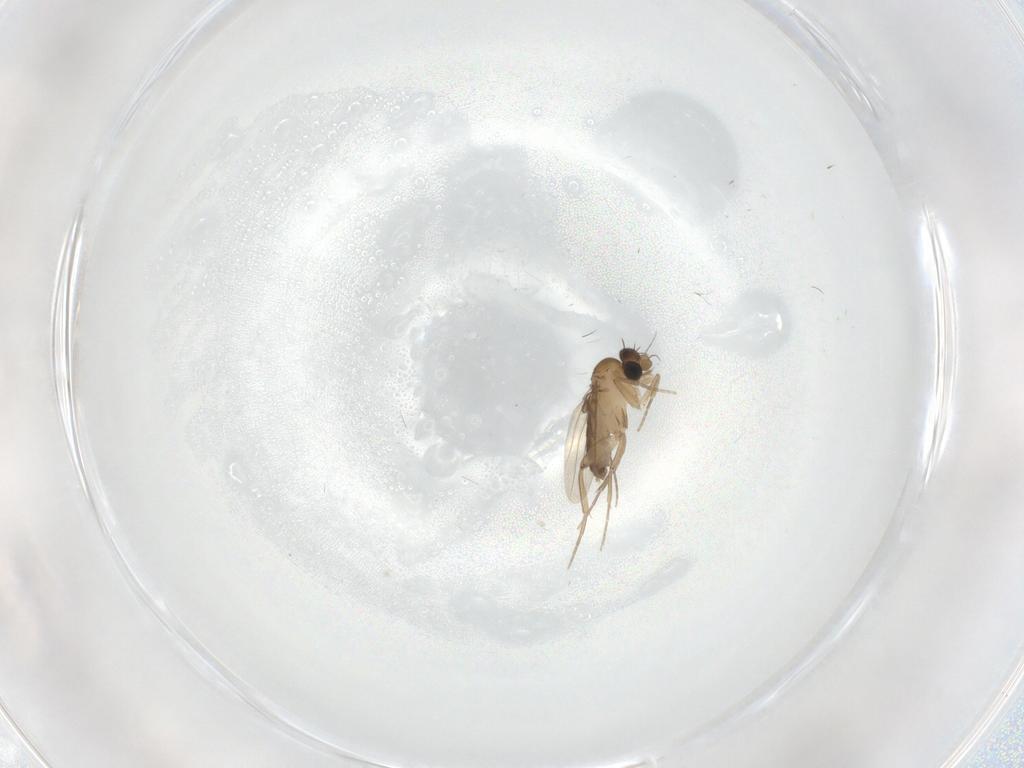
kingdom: Animalia
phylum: Arthropoda
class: Insecta
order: Diptera
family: Phoridae
